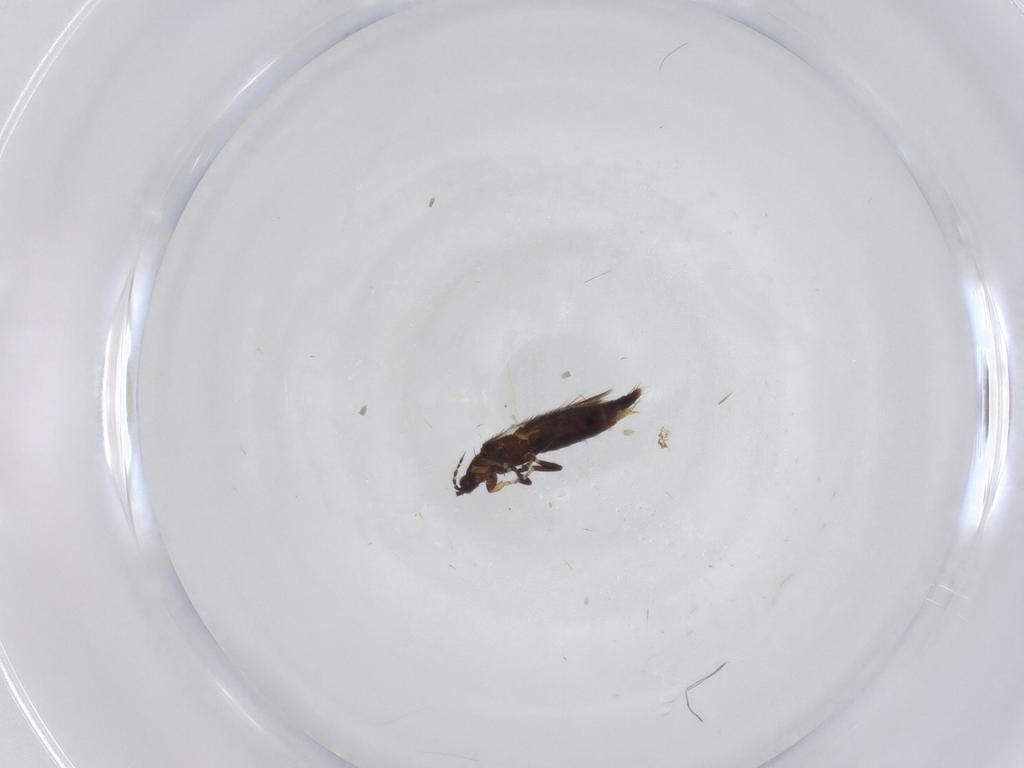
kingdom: Animalia
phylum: Arthropoda
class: Insecta
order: Thysanoptera
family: Thripidae
